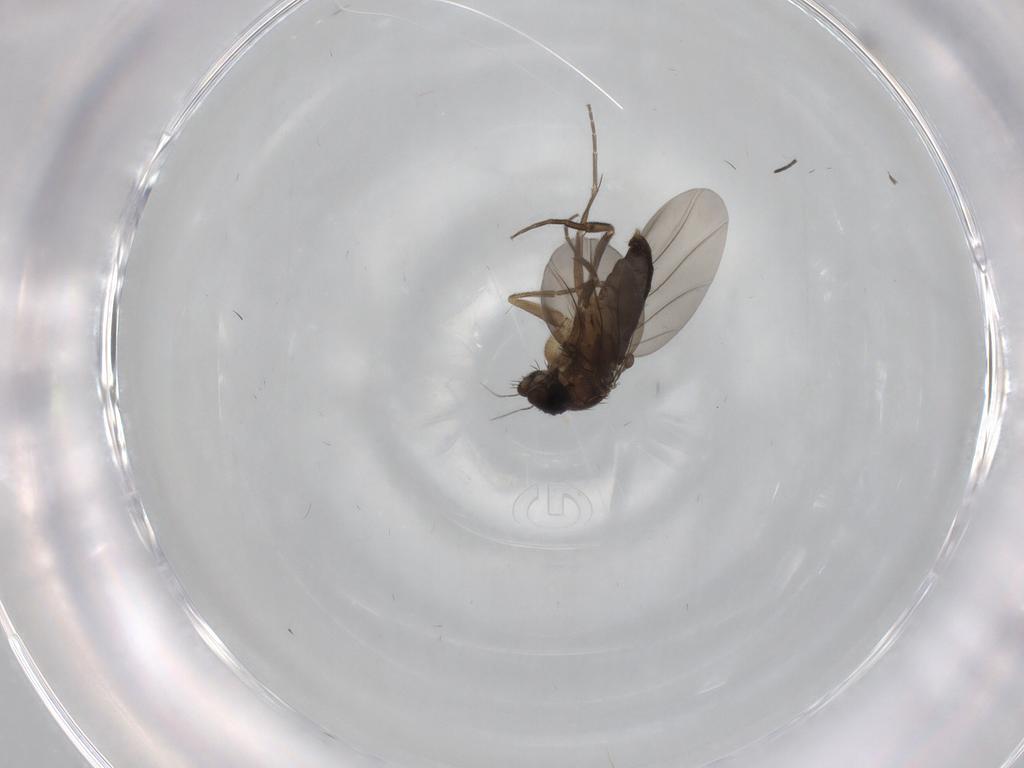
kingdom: Animalia
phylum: Arthropoda
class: Insecta
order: Diptera
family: Phoridae
